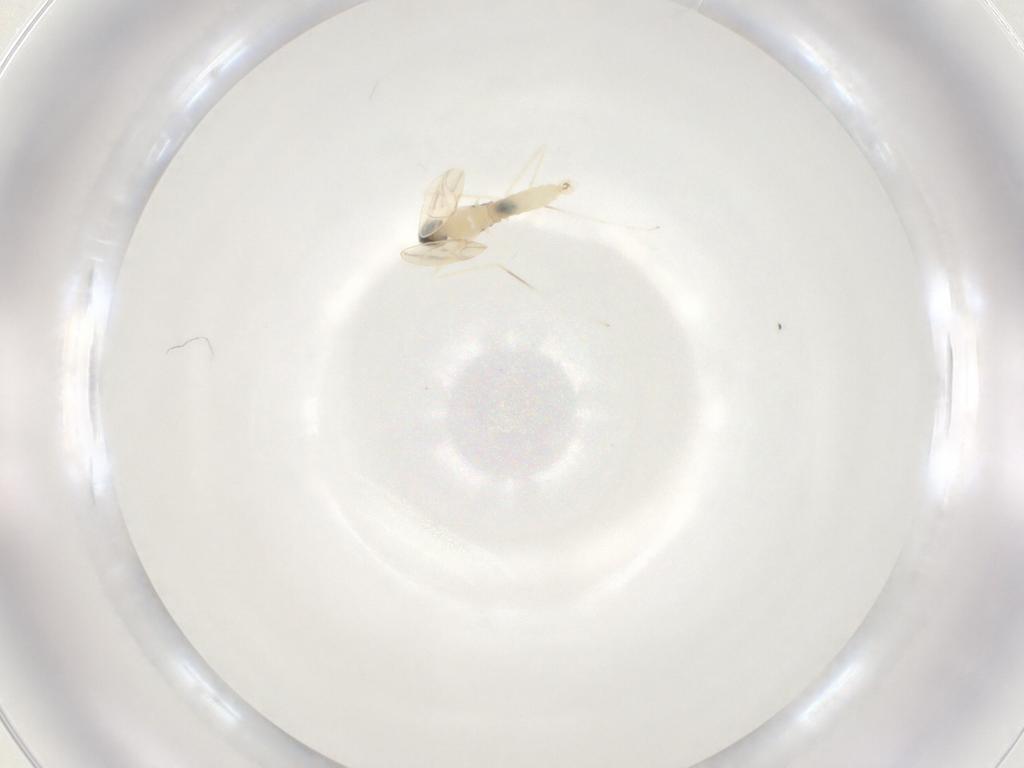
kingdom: Animalia
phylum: Arthropoda
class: Insecta
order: Diptera
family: Cecidomyiidae
